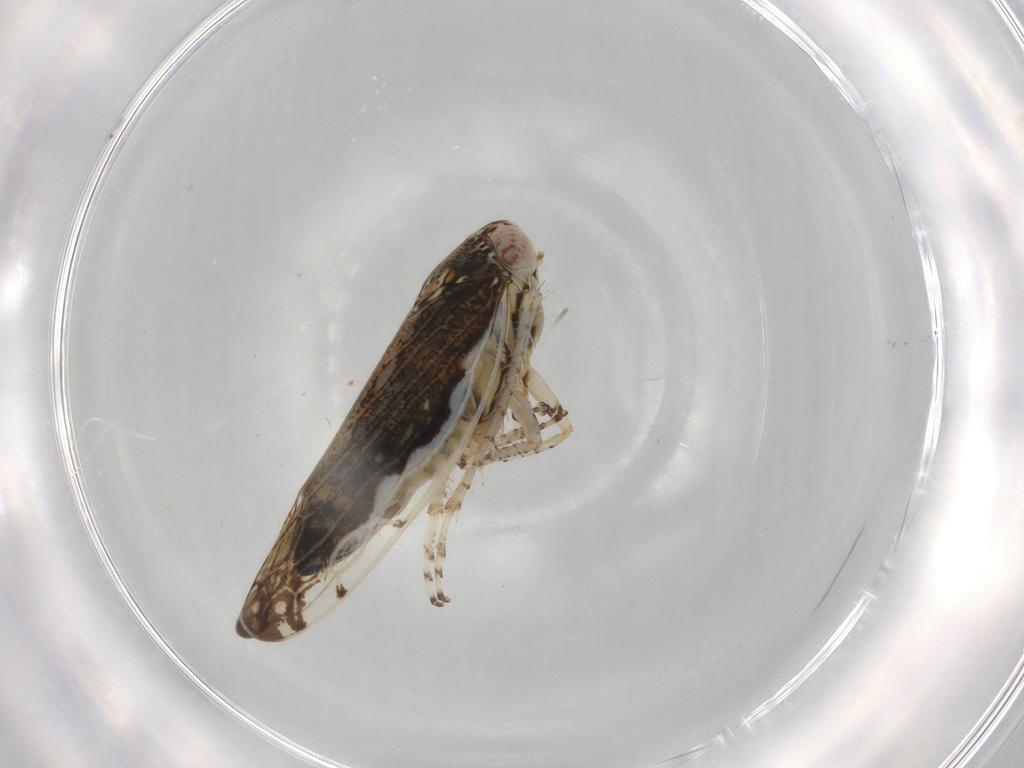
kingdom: Animalia
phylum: Arthropoda
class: Insecta
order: Hemiptera
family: Cicadellidae
